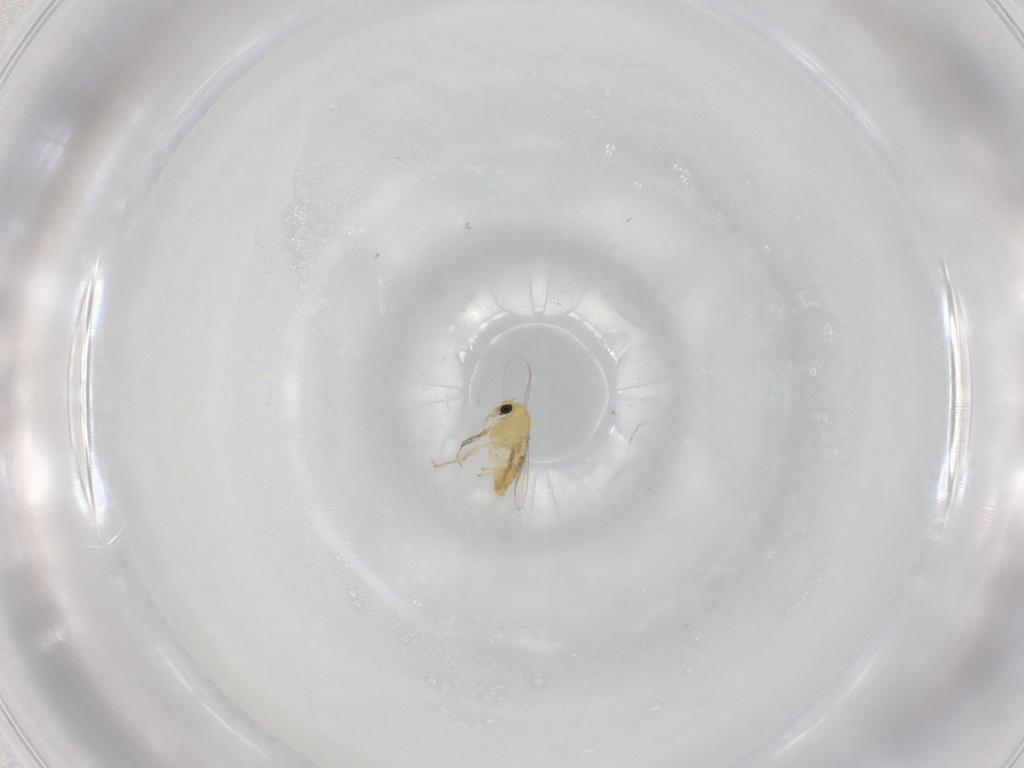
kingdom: Animalia
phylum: Arthropoda
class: Insecta
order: Diptera
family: Chironomidae
